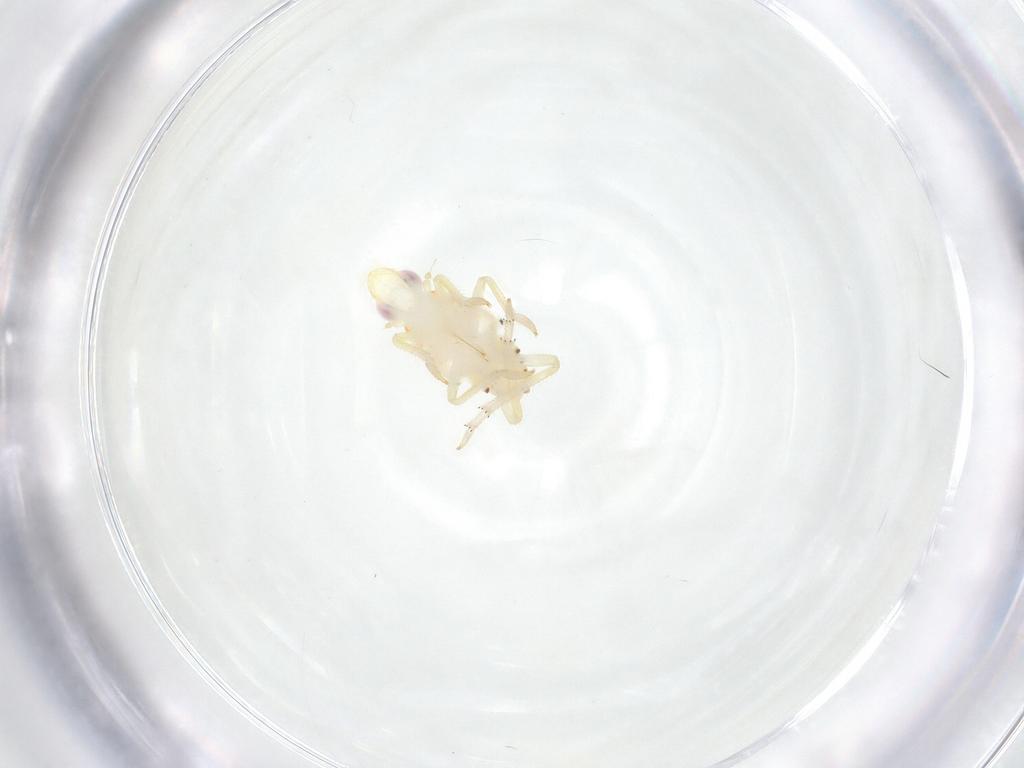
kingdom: Animalia
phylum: Arthropoda
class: Insecta
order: Hemiptera
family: Tropiduchidae
